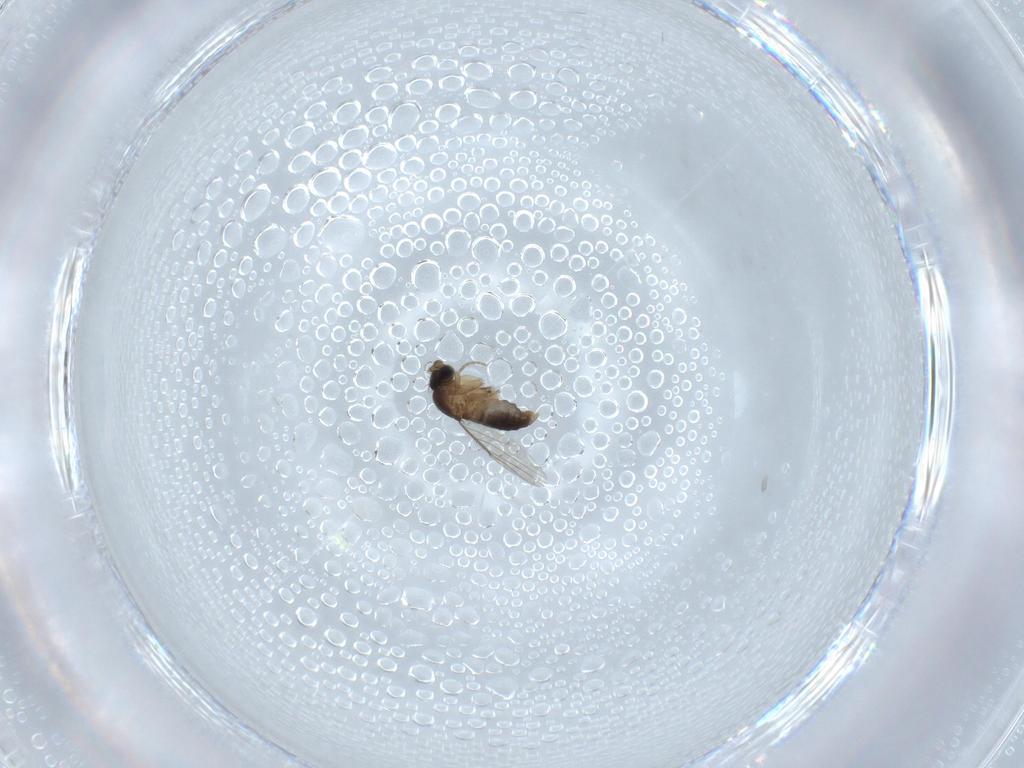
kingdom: Animalia
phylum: Arthropoda
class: Insecta
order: Diptera
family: Phoridae
